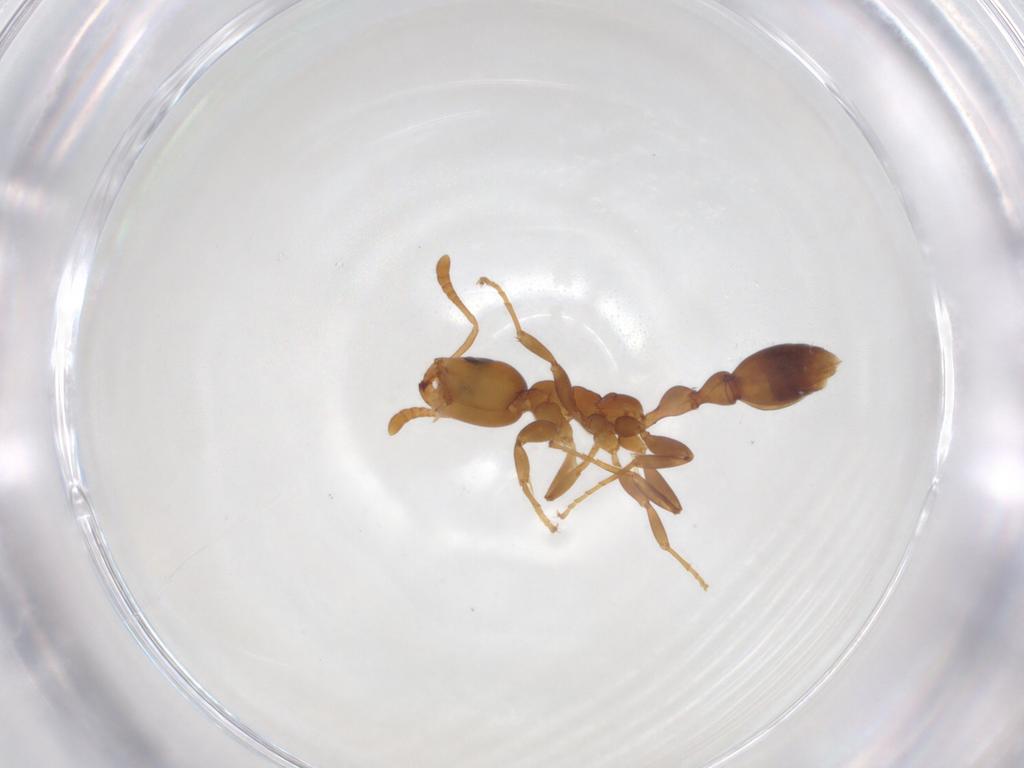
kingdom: Animalia
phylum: Arthropoda
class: Insecta
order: Hymenoptera
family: Formicidae
